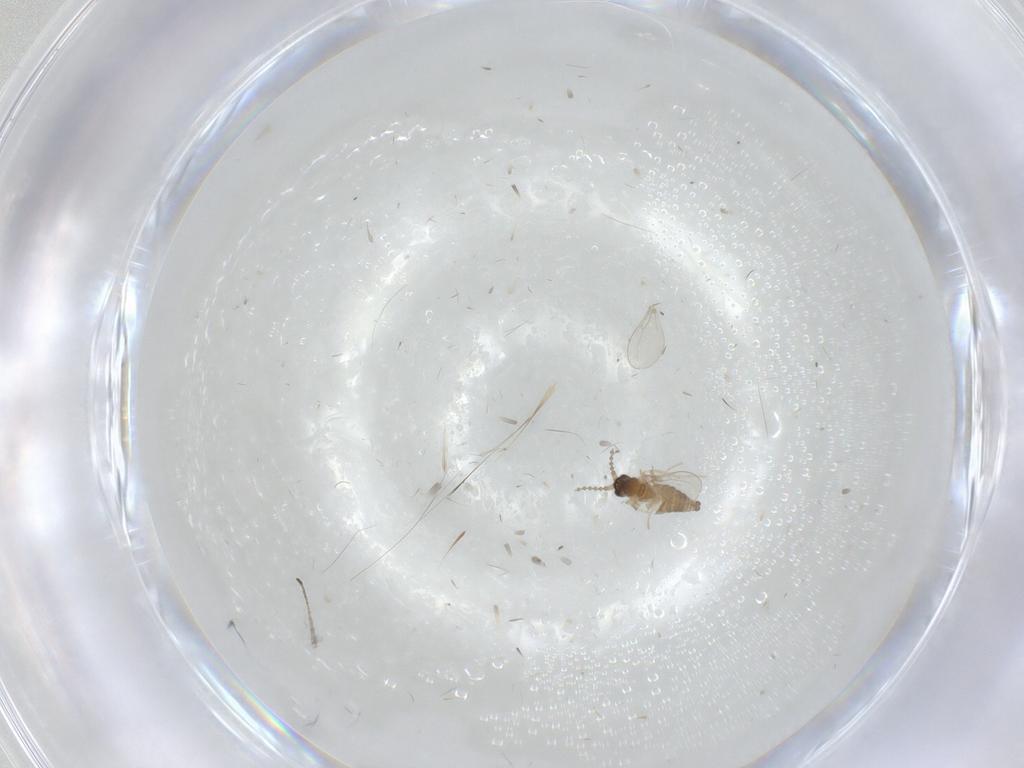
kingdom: Animalia
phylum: Arthropoda
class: Insecta
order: Diptera
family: Cecidomyiidae
